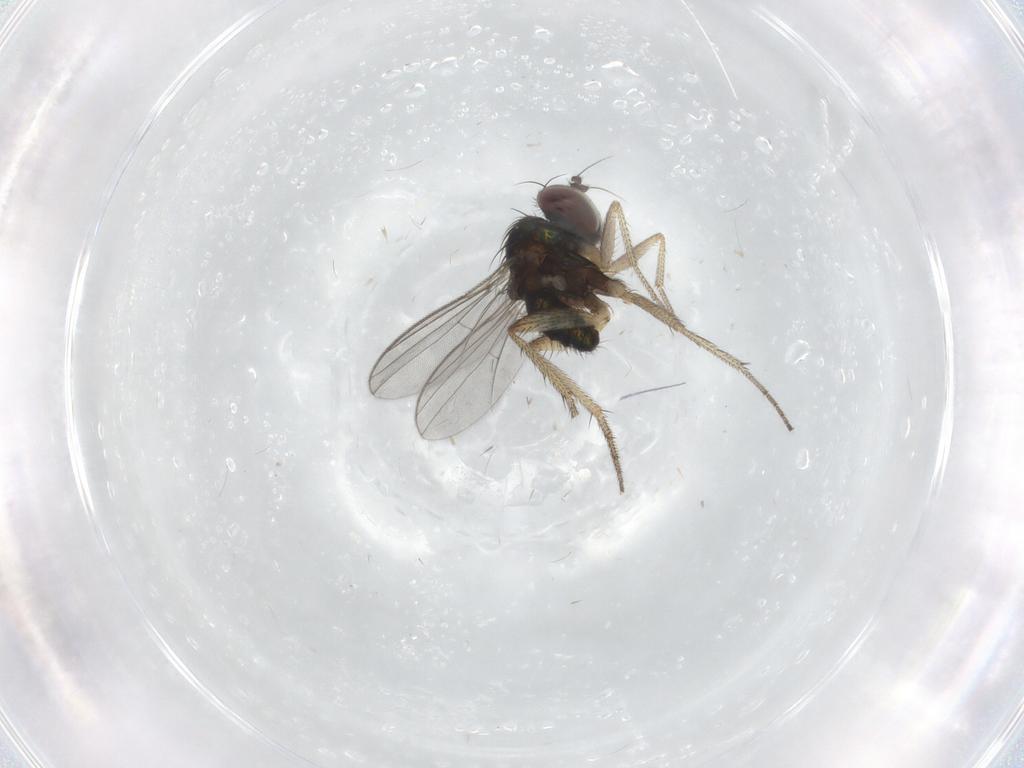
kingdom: Animalia
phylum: Arthropoda
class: Insecta
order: Diptera
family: Dolichopodidae
